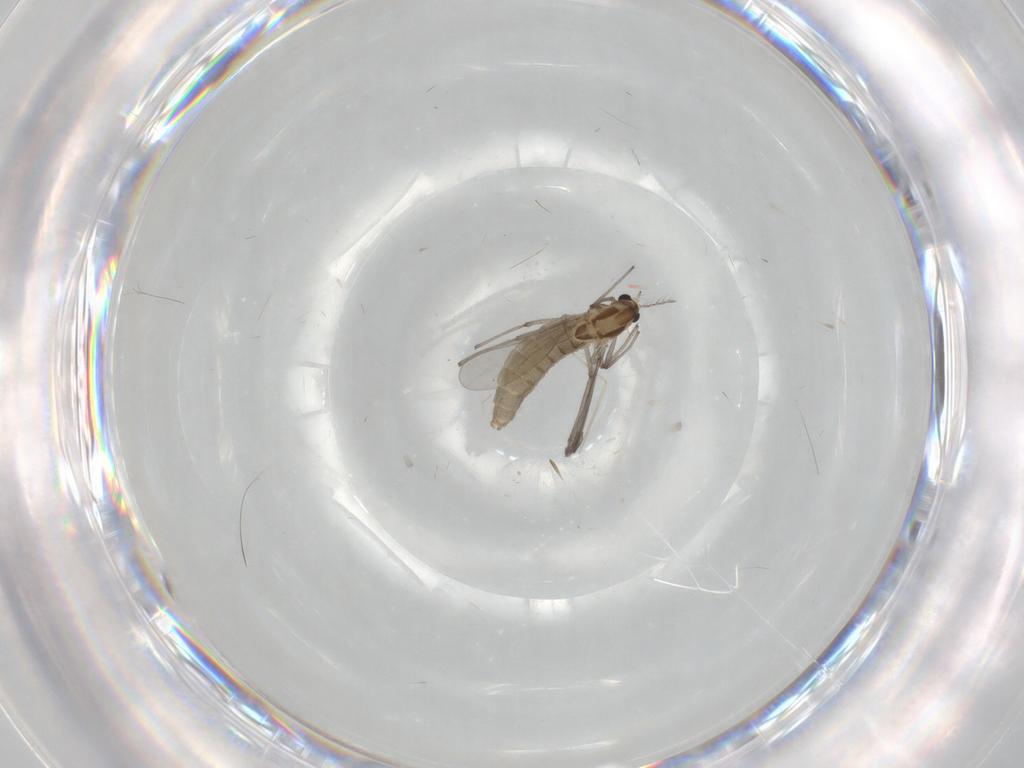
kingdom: Animalia
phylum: Arthropoda
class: Insecta
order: Diptera
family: Psychodidae
